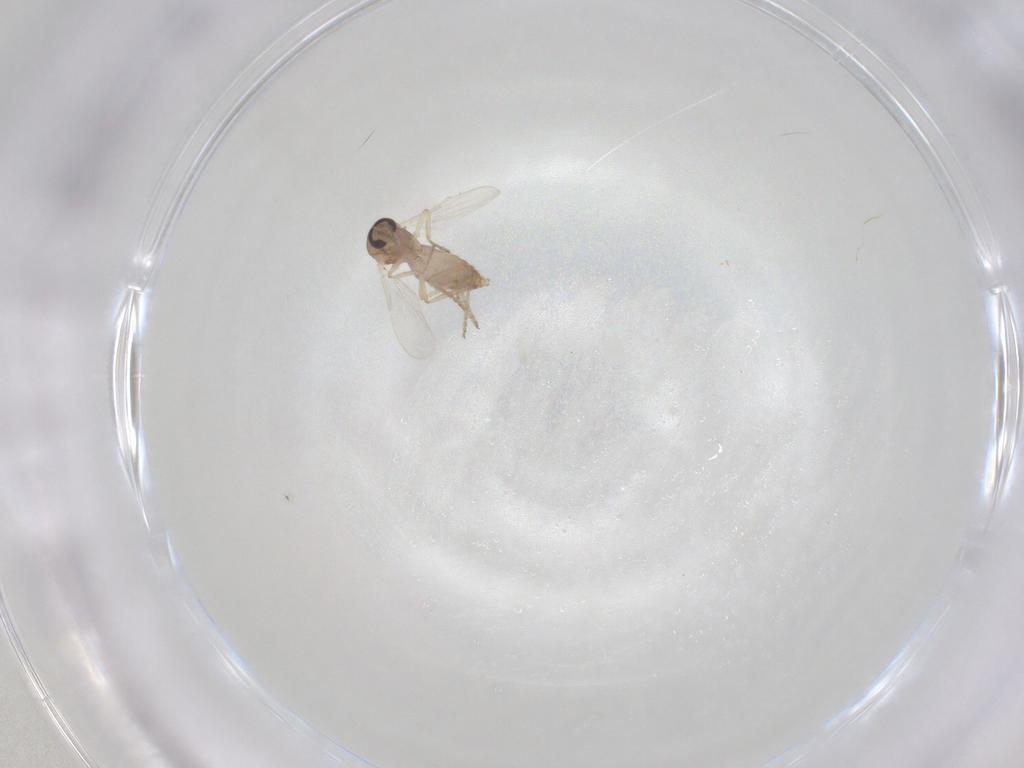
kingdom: Animalia
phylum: Arthropoda
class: Insecta
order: Diptera
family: Ceratopogonidae
